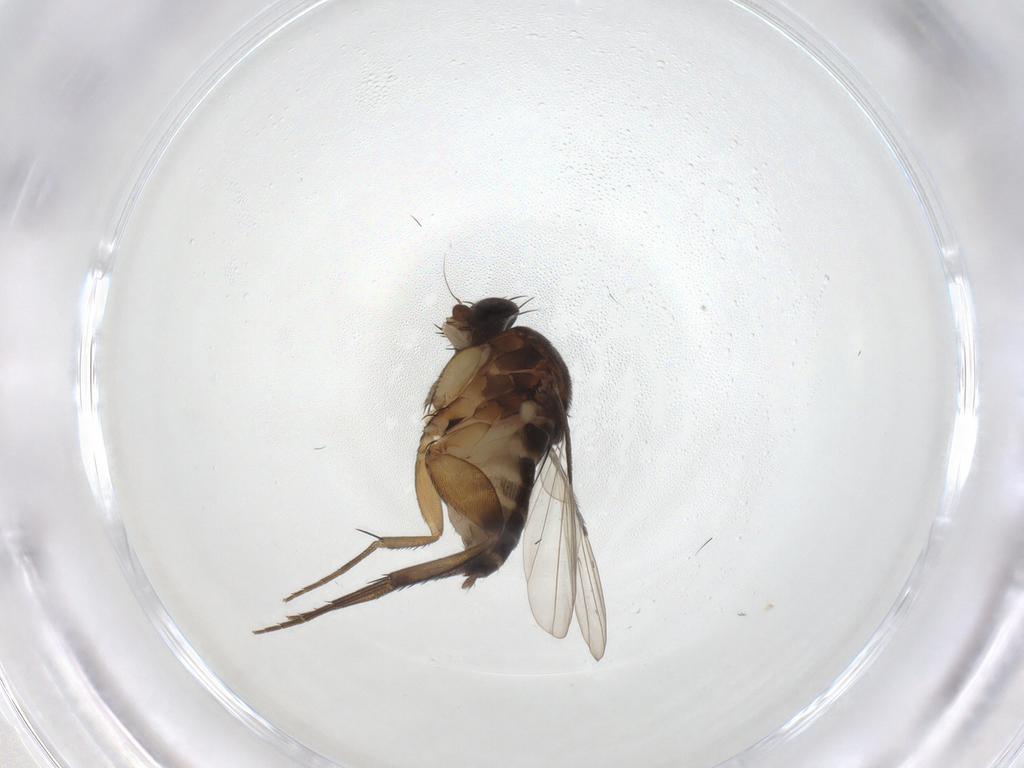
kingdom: Animalia
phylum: Arthropoda
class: Insecta
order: Diptera
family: Phoridae
